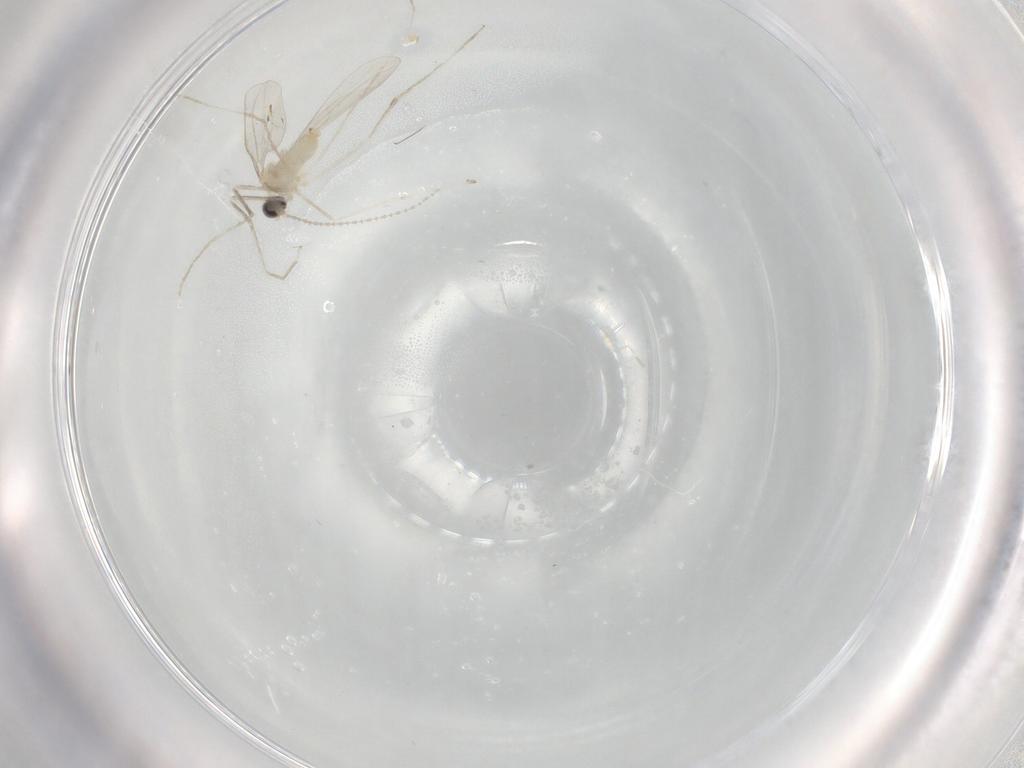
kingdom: Animalia
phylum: Arthropoda
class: Insecta
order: Diptera
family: Cecidomyiidae
